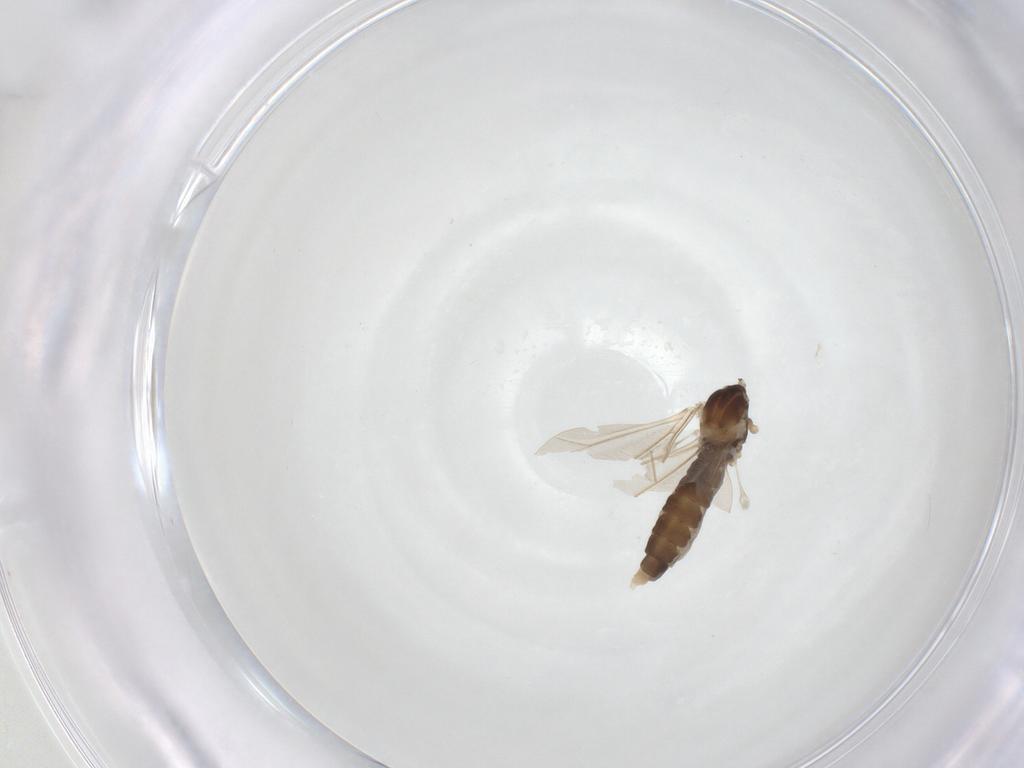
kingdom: Animalia
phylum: Arthropoda
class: Insecta
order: Diptera
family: Cecidomyiidae
